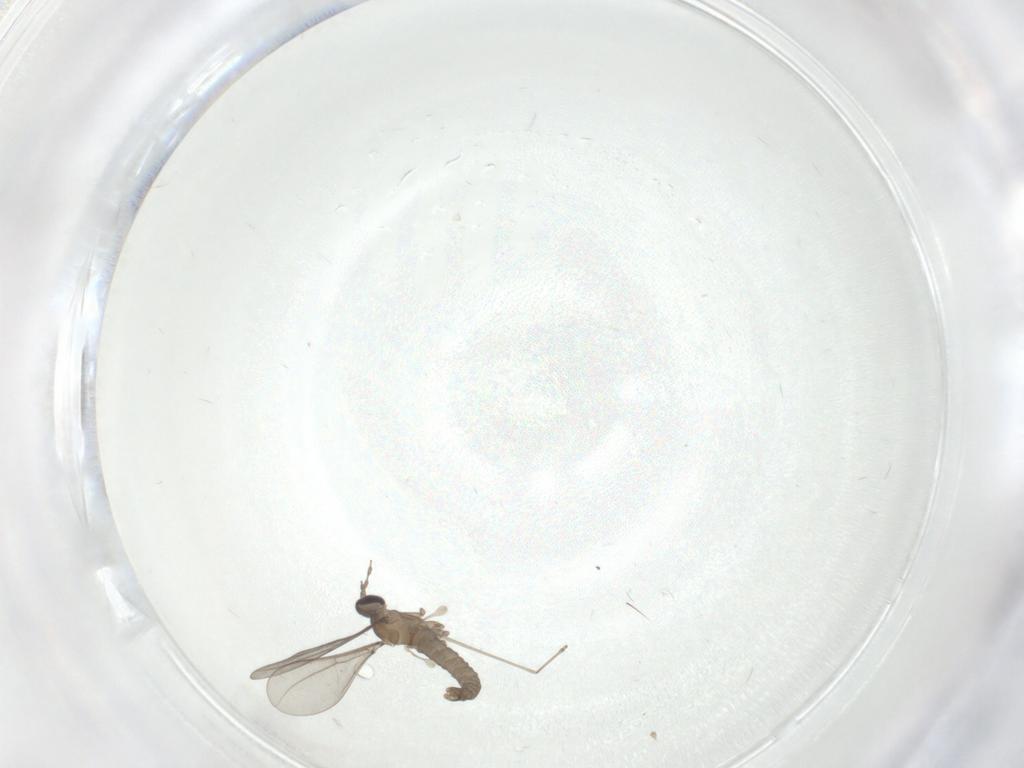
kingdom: Animalia
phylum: Arthropoda
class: Insecta
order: Diptera
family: Cecidomyiidae
